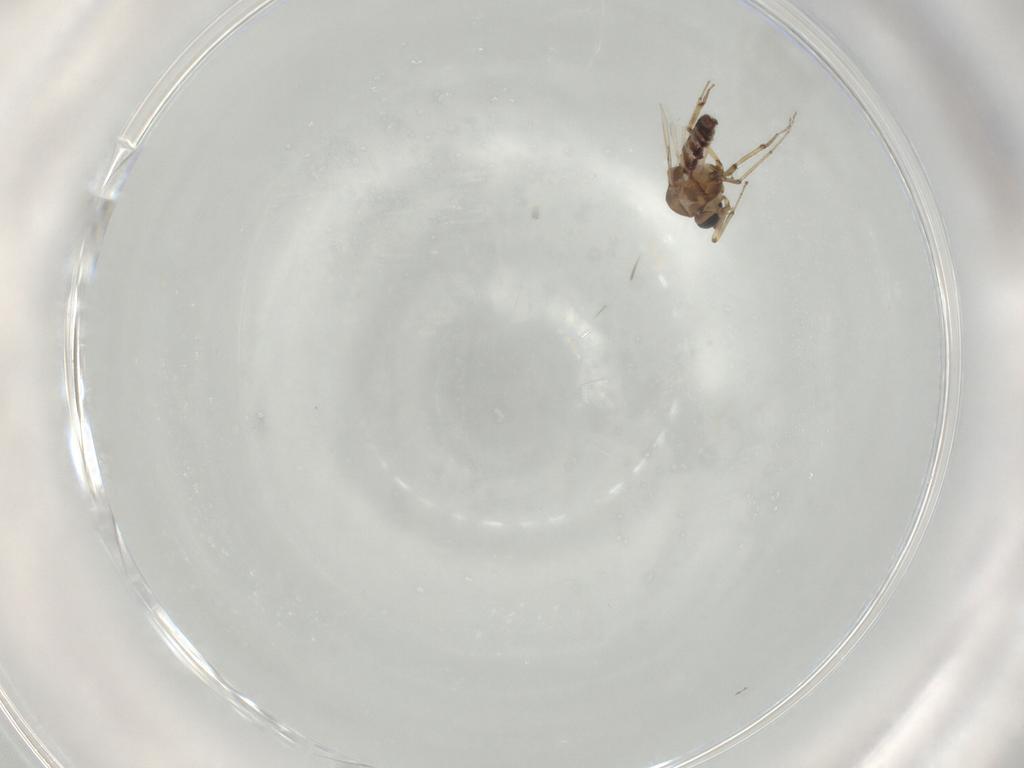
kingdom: Animalia
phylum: Arthropoda
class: Insecta
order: Diptera
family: Ceratopogonidae
